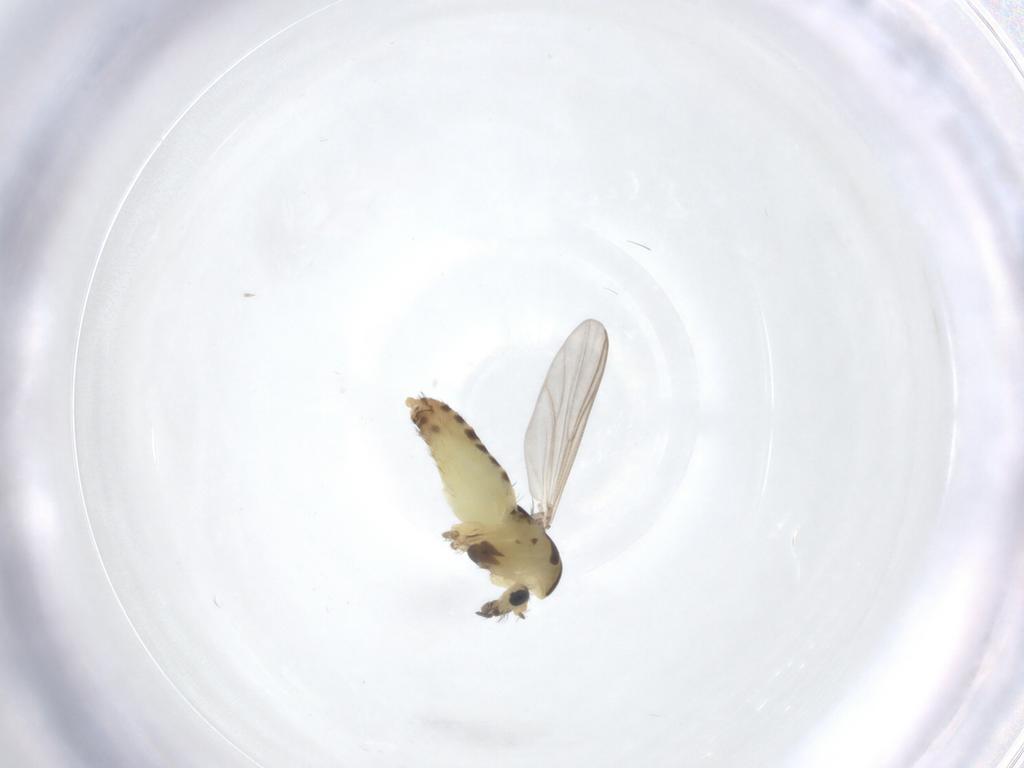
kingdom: Animalia
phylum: Arthropoda
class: Insecta
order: Diptera
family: Chironomidae
